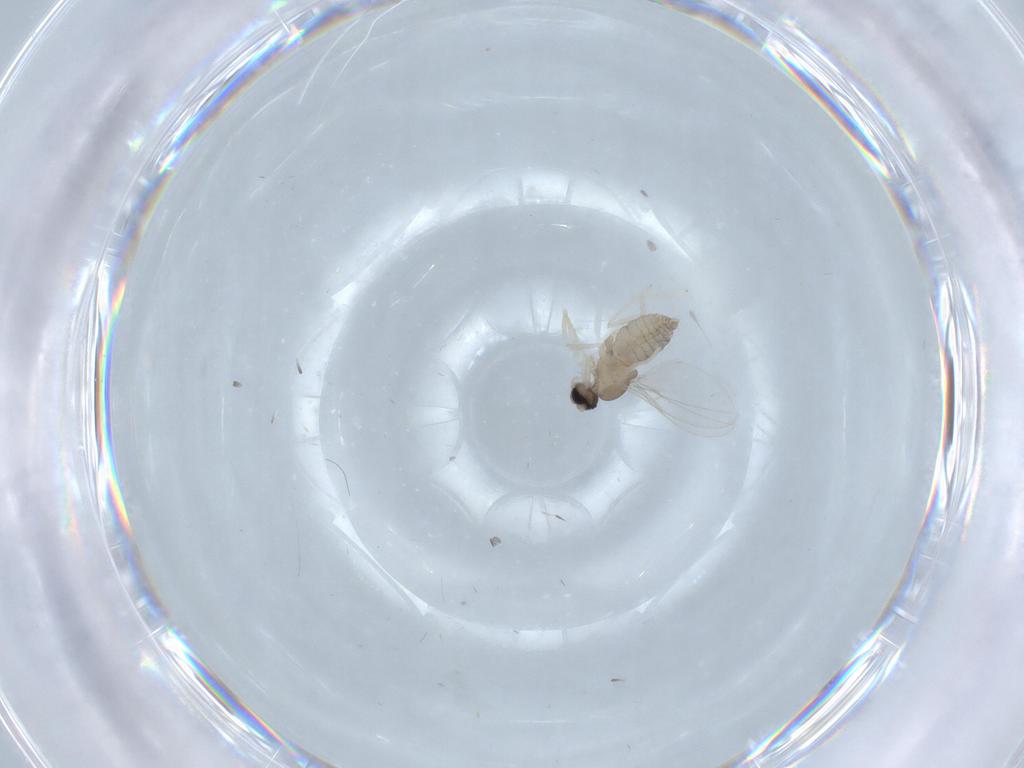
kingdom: Animalia
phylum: Arthropoda
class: Insecta
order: Diptera
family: Cecidomyiidae
